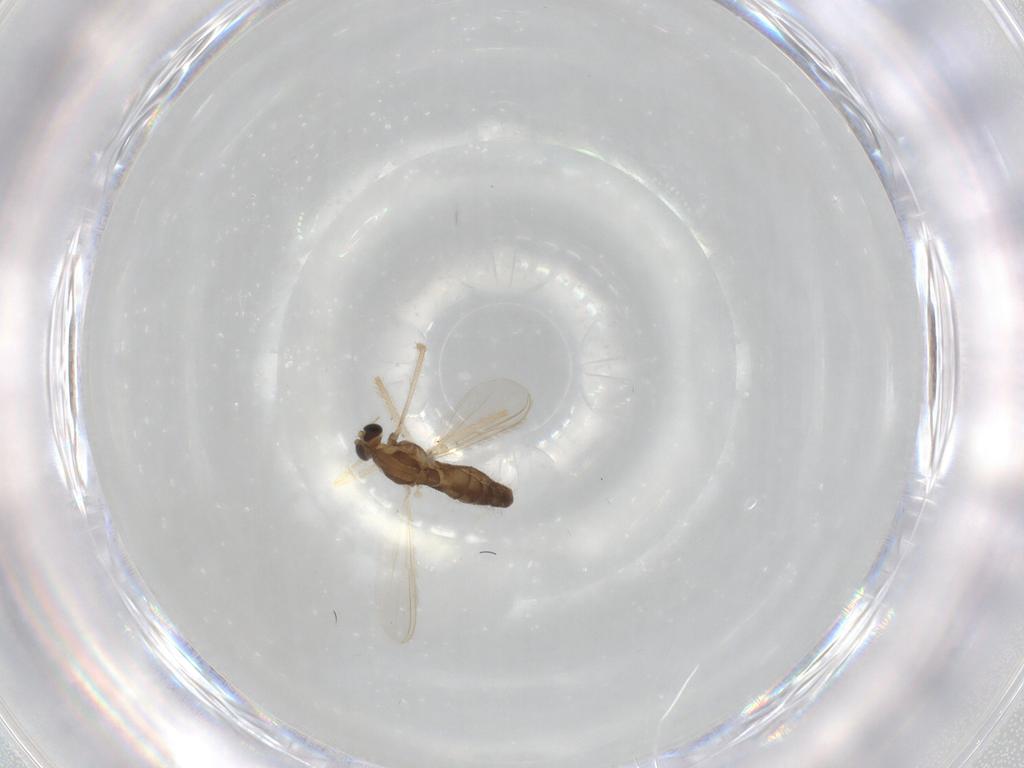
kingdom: Animalia
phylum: Arthropoda
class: Insecta
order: Diptera
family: Chironomidae
